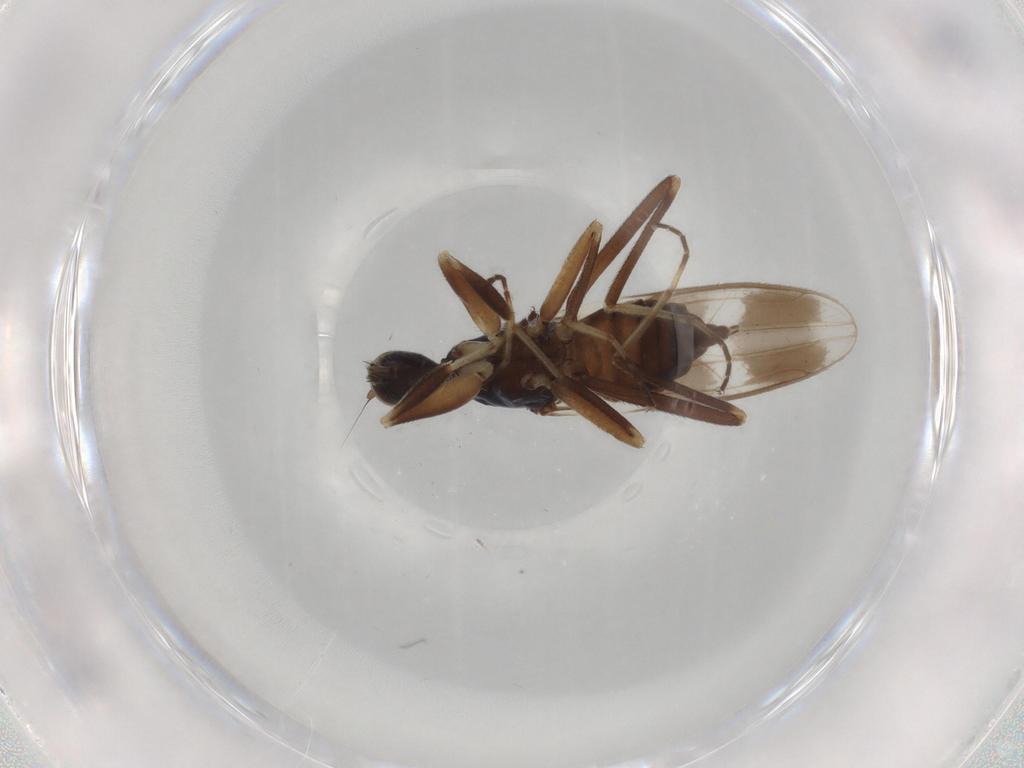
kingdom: Animalia
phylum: Arthropoda
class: Insecta
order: Diptera
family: Hybotidae
